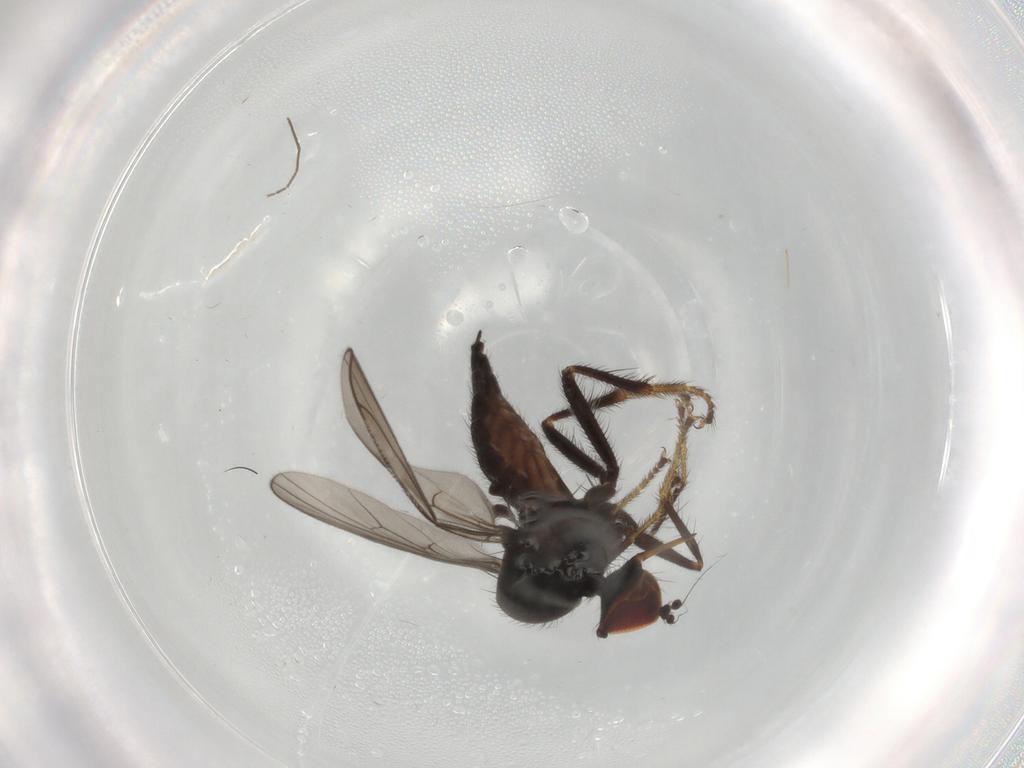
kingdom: Animalia
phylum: Arthropoda
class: Insecta
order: Diptera
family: Hybotidae
